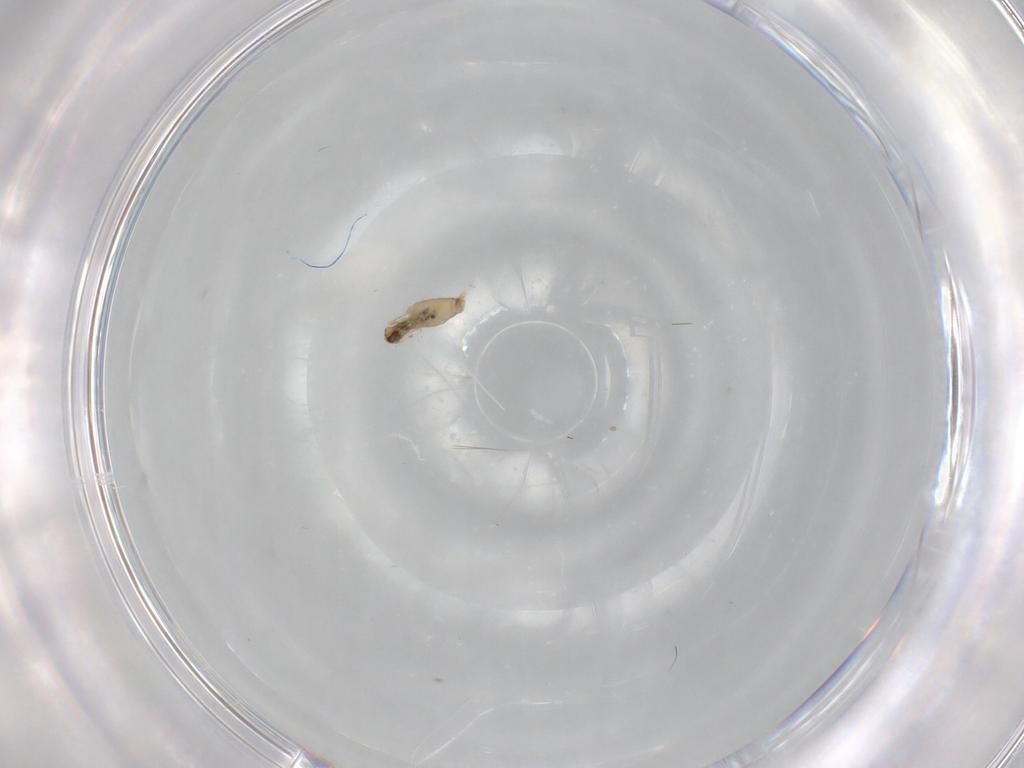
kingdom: Animalia
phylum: Arthropoda
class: Insecta
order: Diptera
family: Cecidomyiidae
